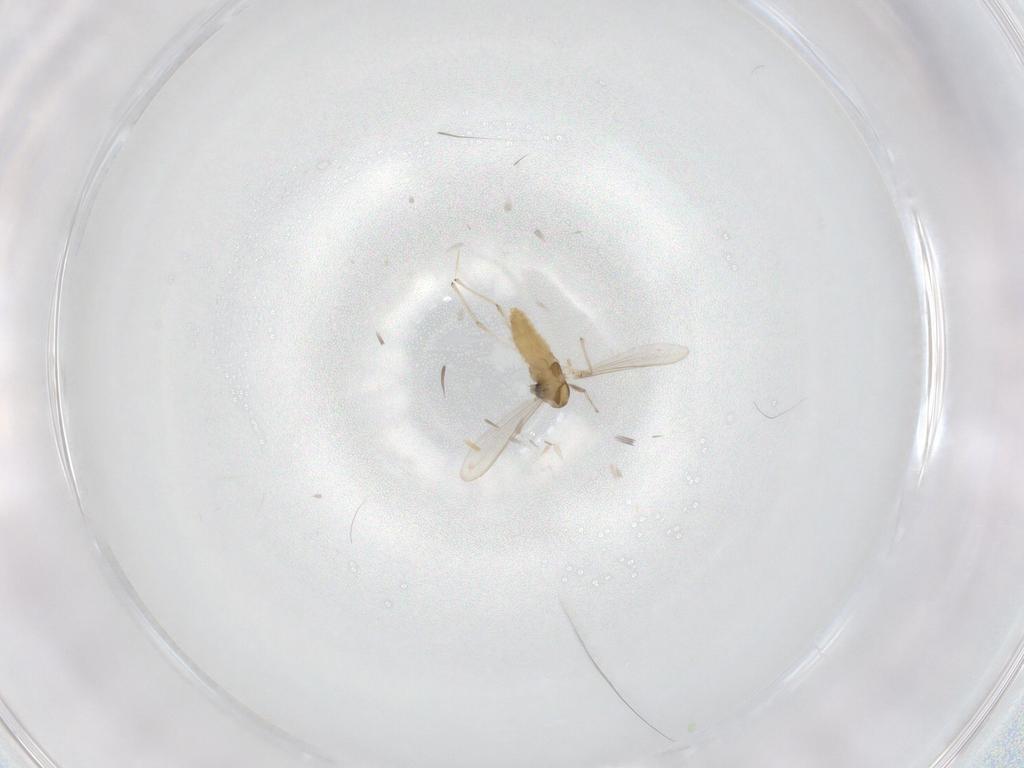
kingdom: Animalia
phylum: Arthropoda
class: Insecta
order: Diptera
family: Chironomidae
